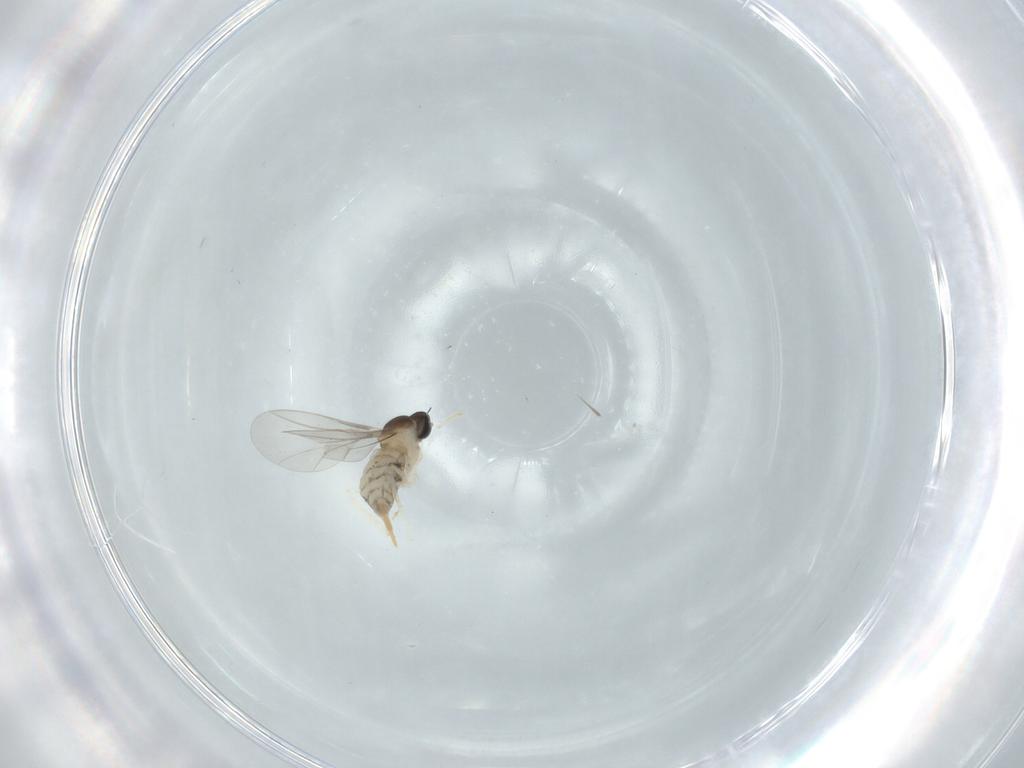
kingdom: Animalia
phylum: Arthropoda
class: Insecta
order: Diptera
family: Cecidomyiidae
